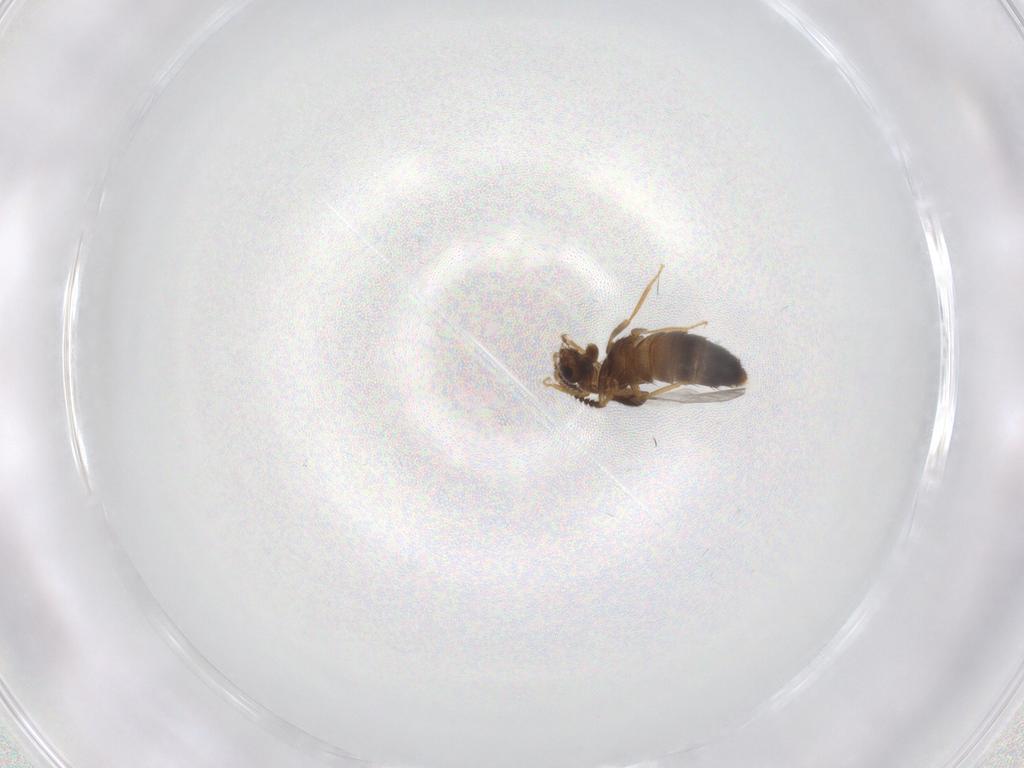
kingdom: Animalia
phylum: Arthropoda
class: Insecta
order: Coleoptera
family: Staphylinidae
